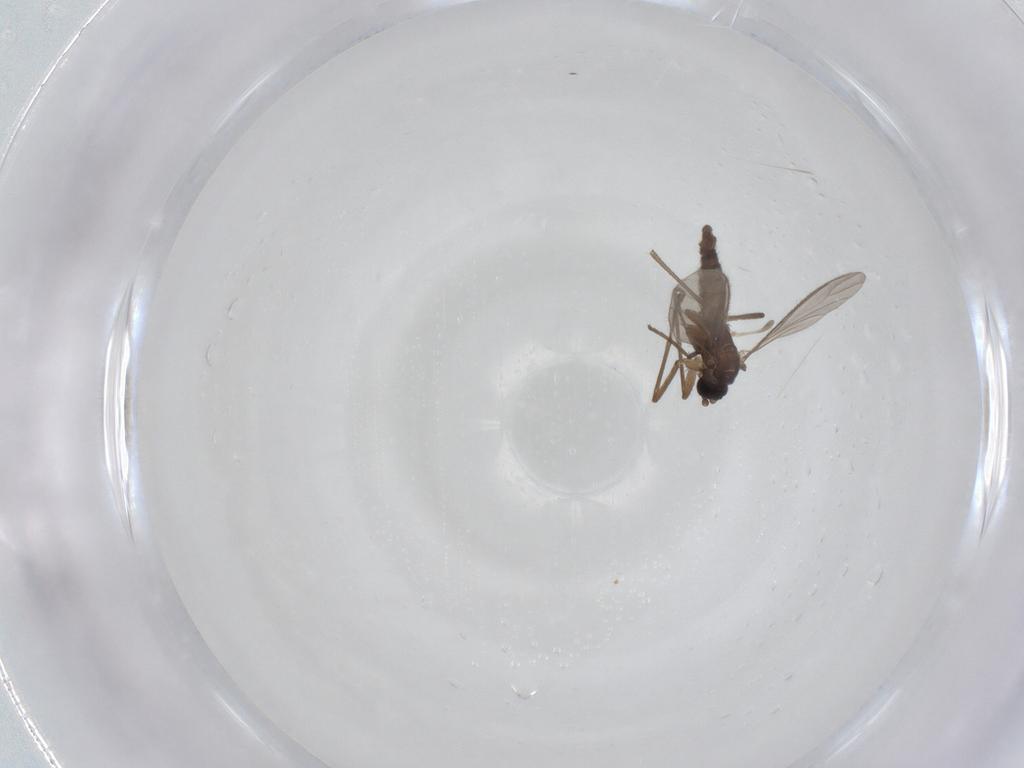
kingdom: Animalia
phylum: Arthropoda
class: Insecta
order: Diptera
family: Sciaridae
